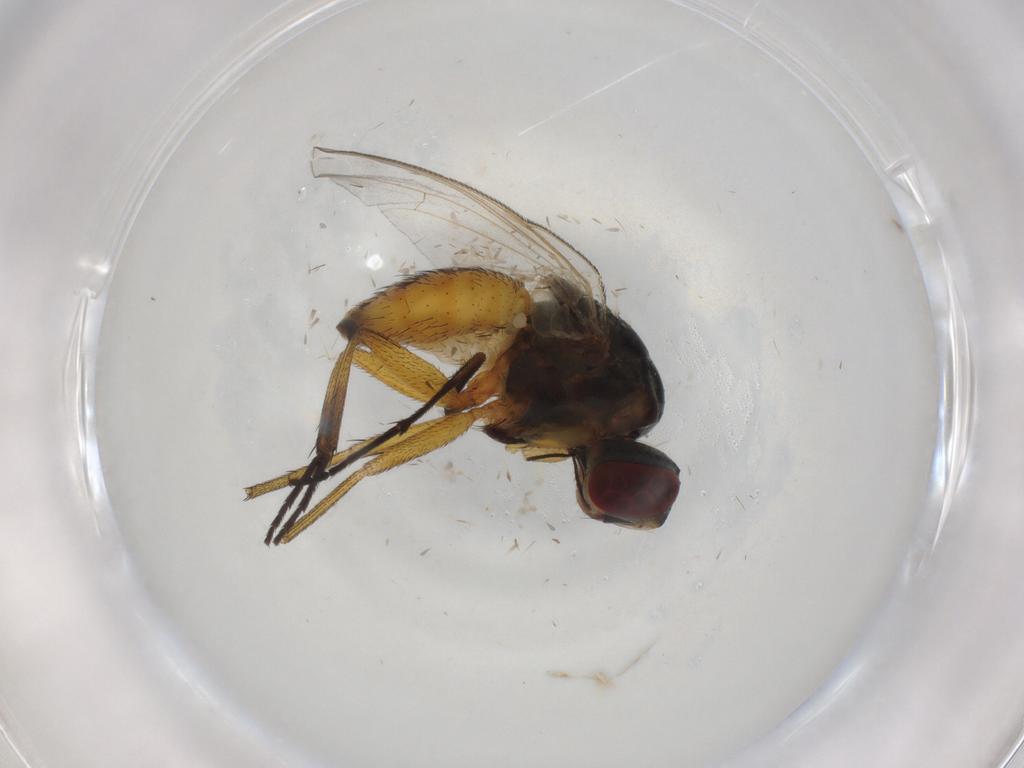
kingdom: Animalia
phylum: Arthropoda
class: Insecta
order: Diptera
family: Muscidae
